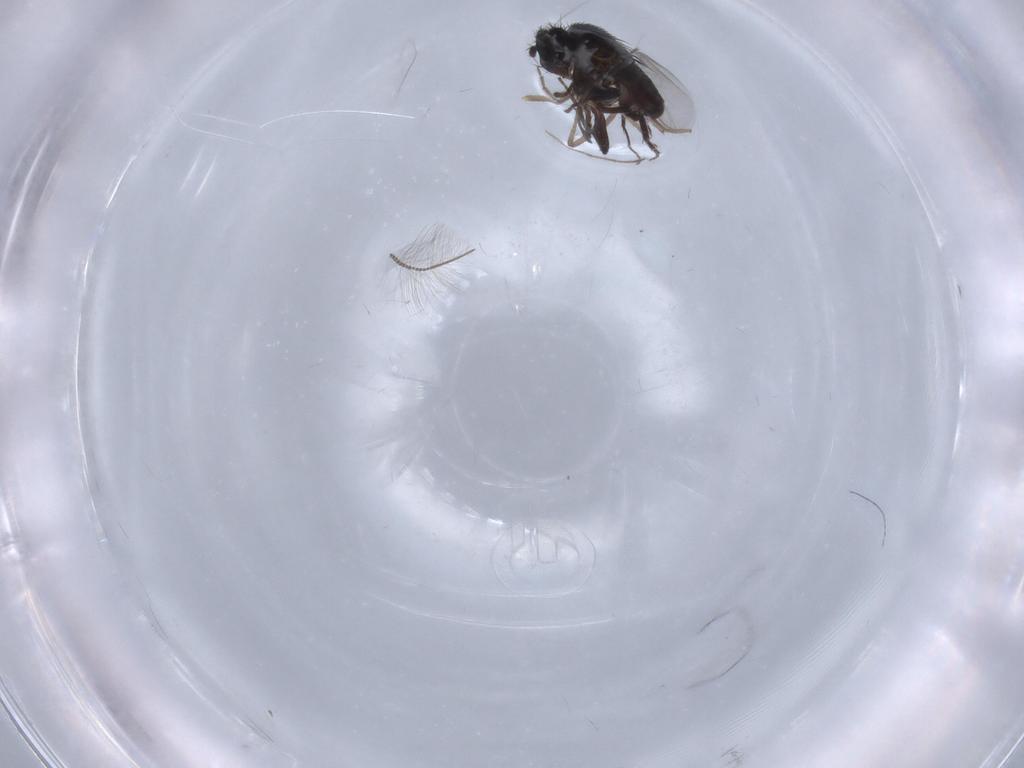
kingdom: Animalia
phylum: Arthropoda
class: Insecta
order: Diptera
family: Chironomidae
